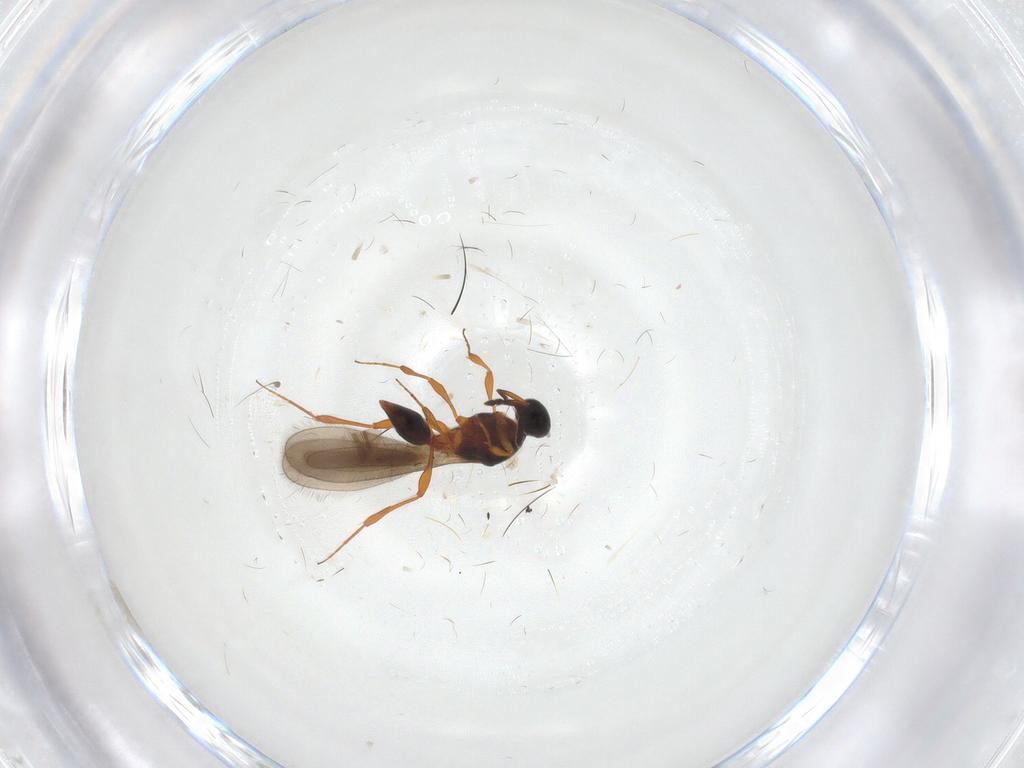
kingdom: Animalia
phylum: Arthropoda
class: Insecta
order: Hymenoptera
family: Platygastridae
